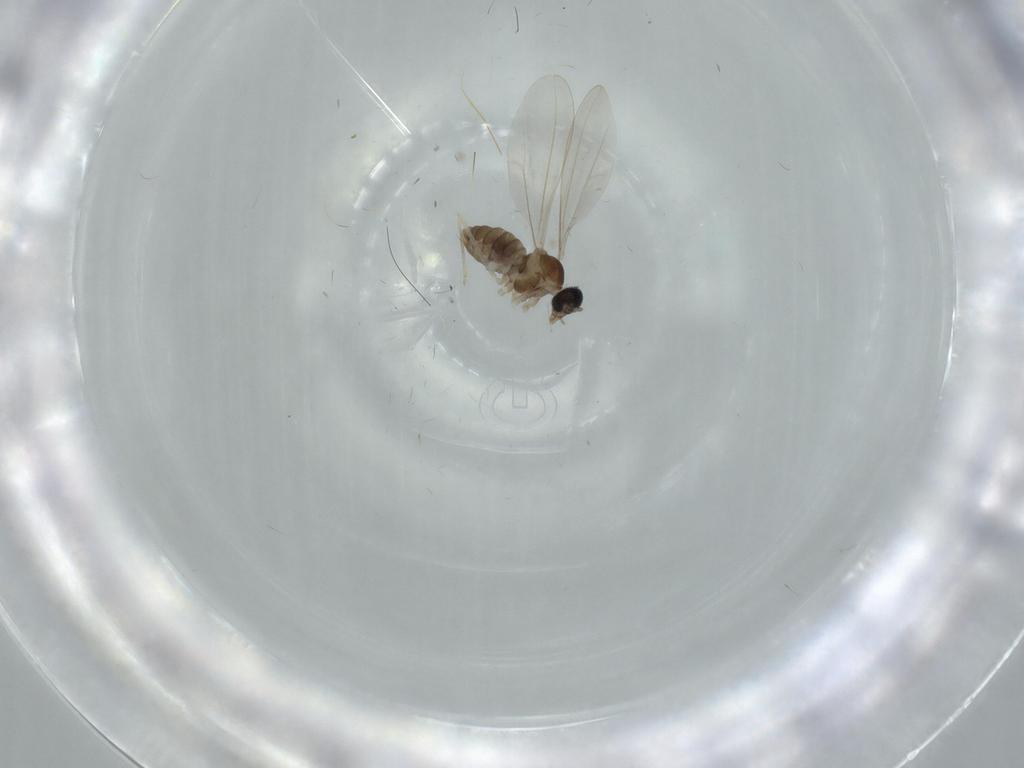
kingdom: Animalia
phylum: Arthropoda
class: Insecta
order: Diptera
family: Cecidomyiidae
